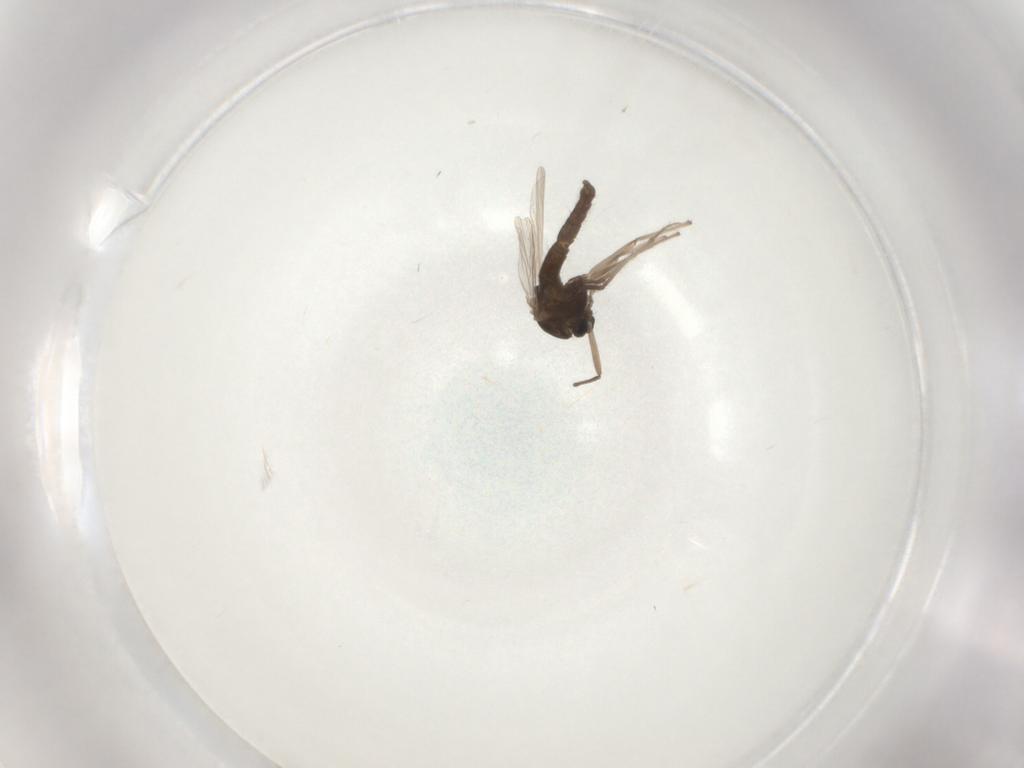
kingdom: Animalia
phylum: Arthropoda
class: Insecta
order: Diptera
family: Chironomidae
